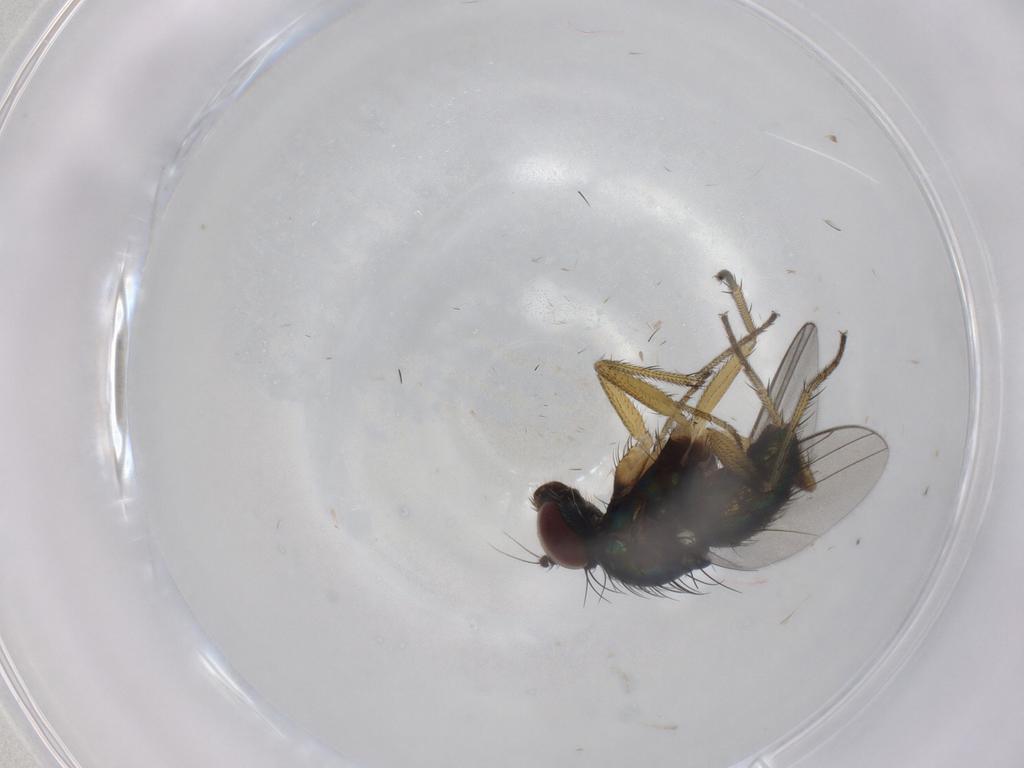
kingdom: Animalia
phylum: Arthropoda
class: Insecta
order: Diptera
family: Dolichopodidae
